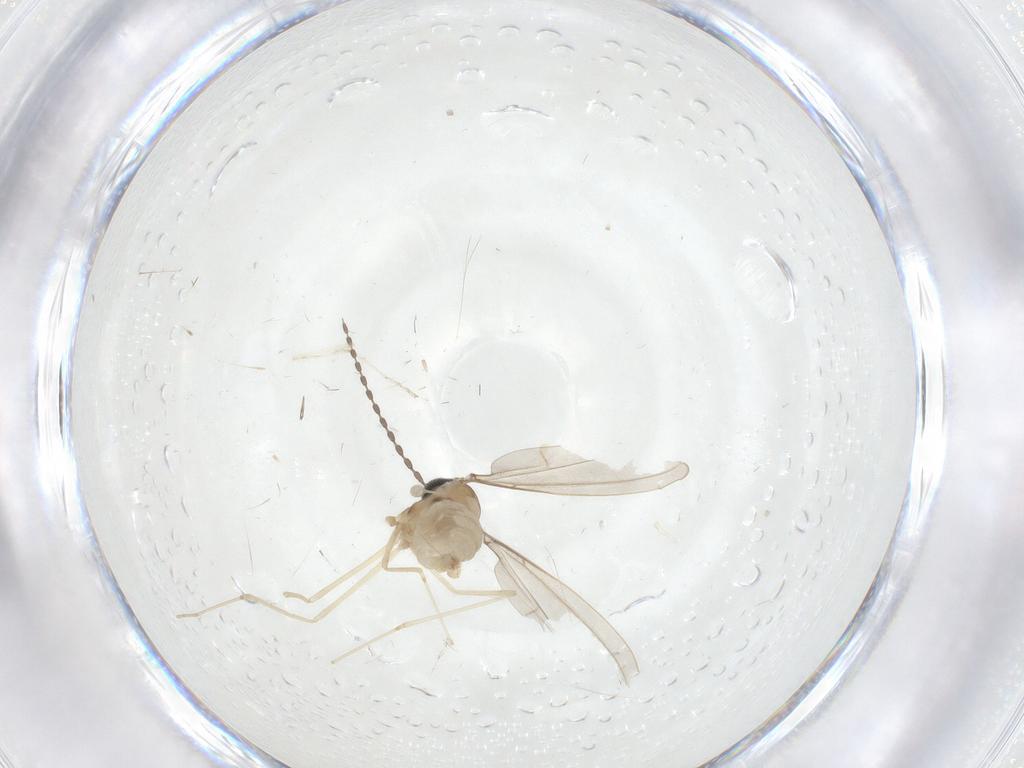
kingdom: Animalia
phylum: Arthropoda
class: Insecta
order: Diptera
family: Cecidomyiidae
